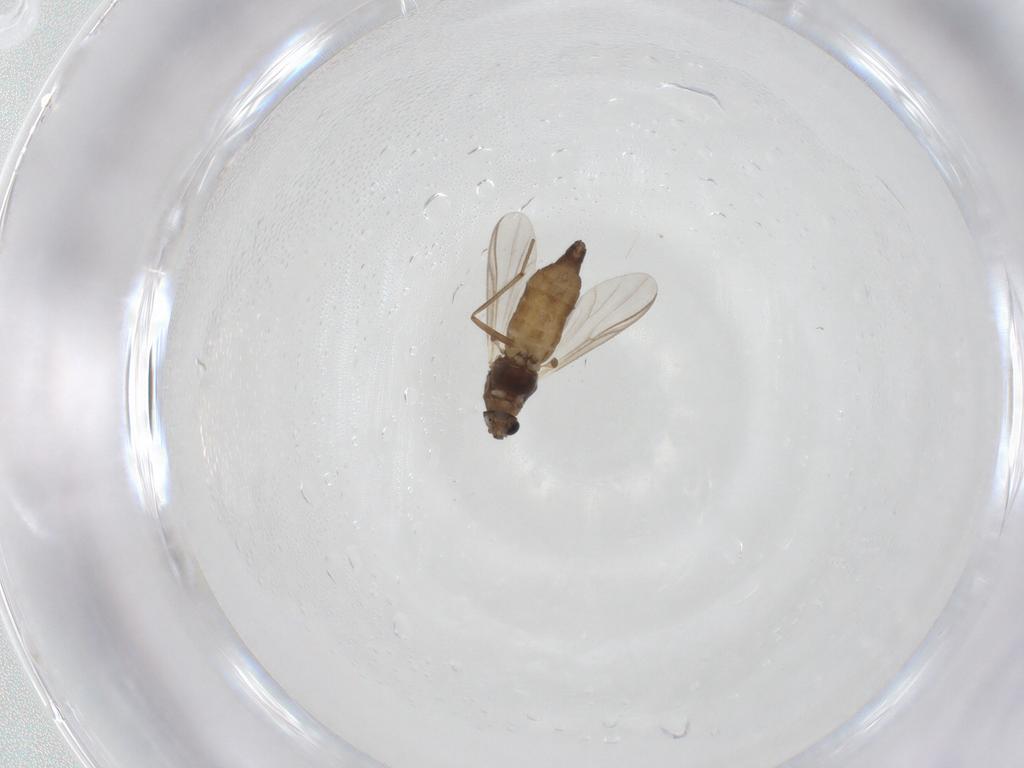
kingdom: Animalia
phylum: Arthropoda
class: Insecta
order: Diptera
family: Chironomidae
